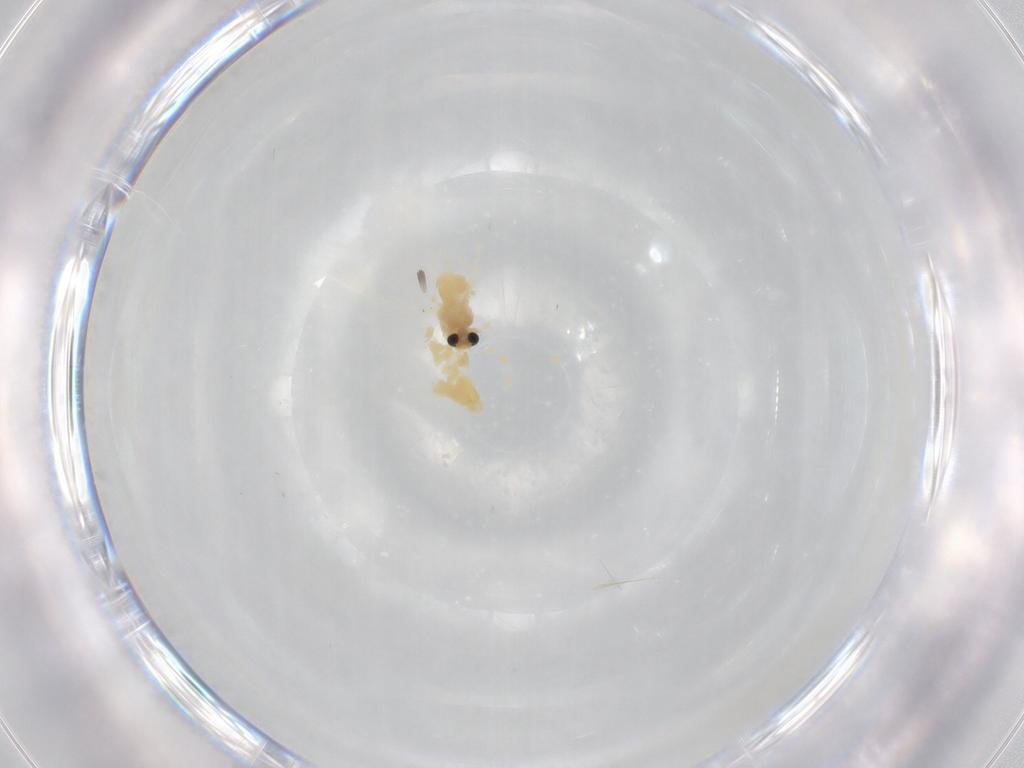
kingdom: Animalia
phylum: Arthropoda
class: Insecta
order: Diptera
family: Chironomidae
